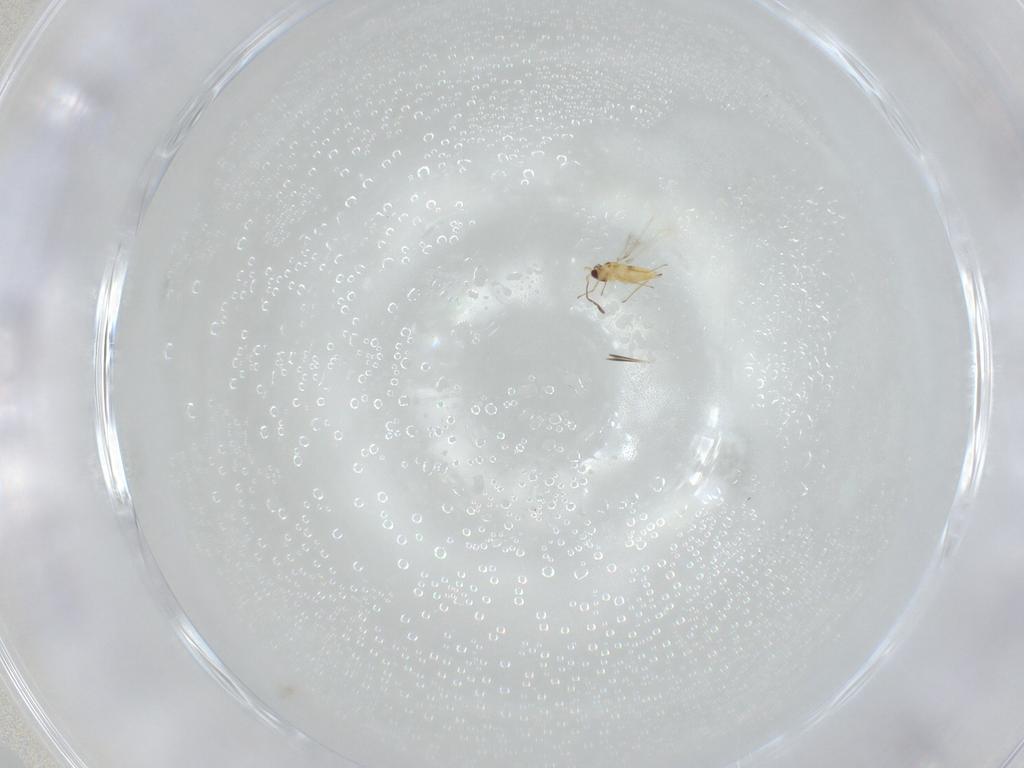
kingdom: Animalia
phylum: Arthropoda
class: Insecta
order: Hymenoptera
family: Mymaridae
